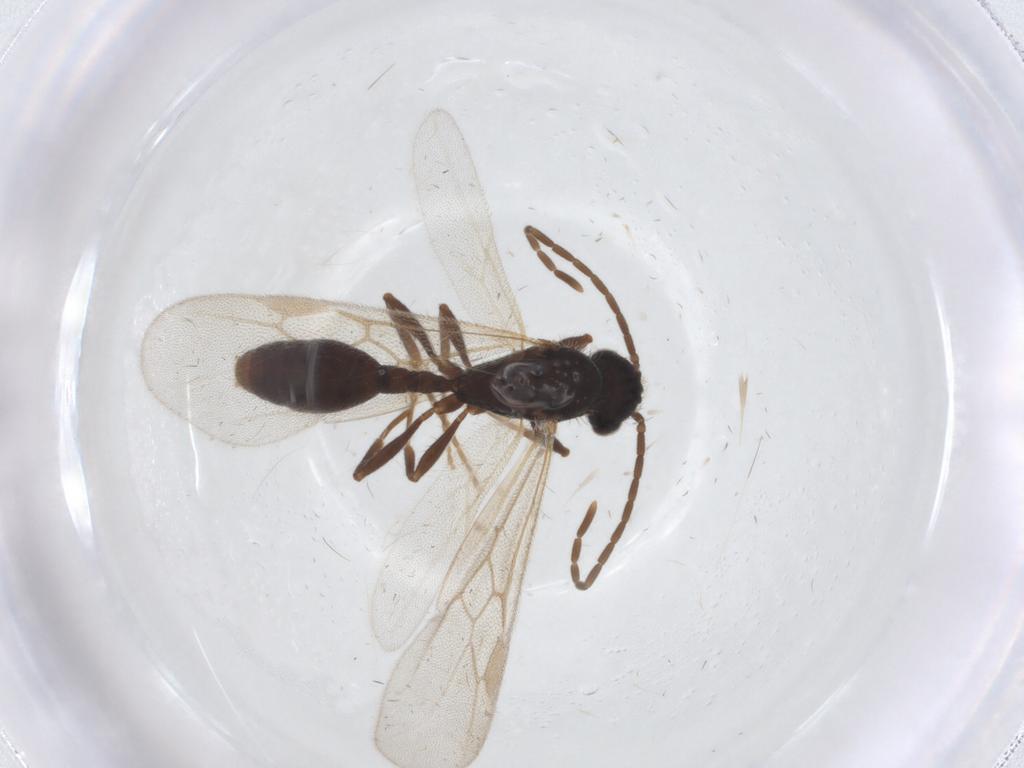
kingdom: Animalia
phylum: Arthropoda
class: Insecta
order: Hymenoptera
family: Formicidae
